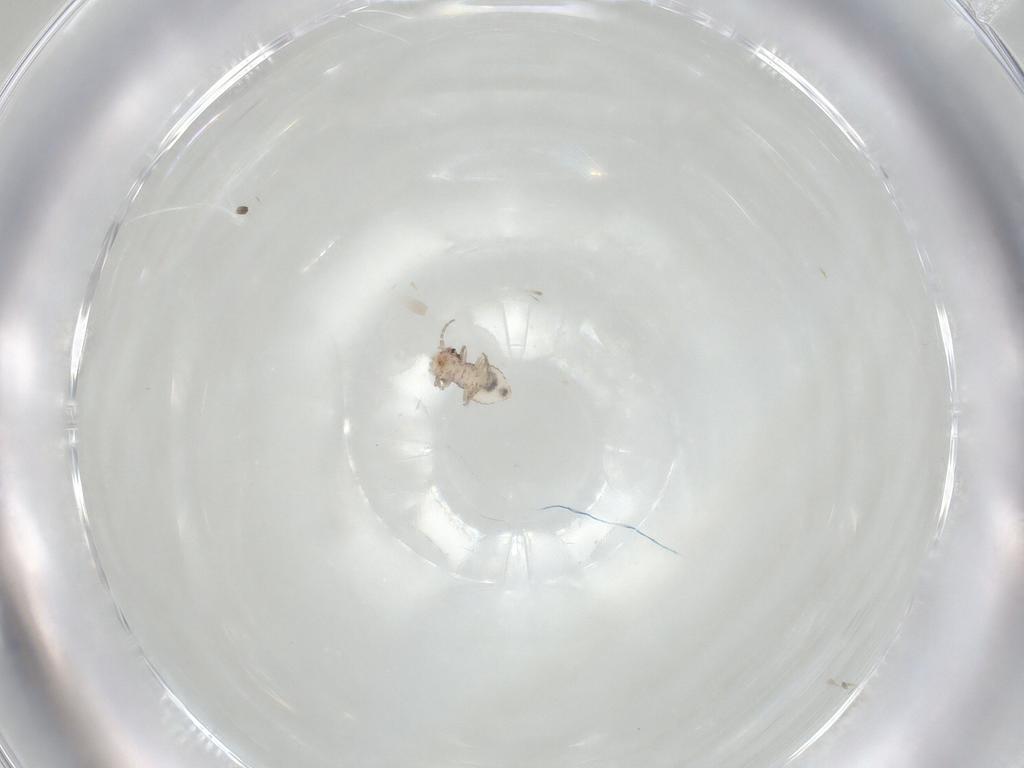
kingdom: Animalia
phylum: Arthropoda
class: Insecta
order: Psocodea
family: Philotarsidae
